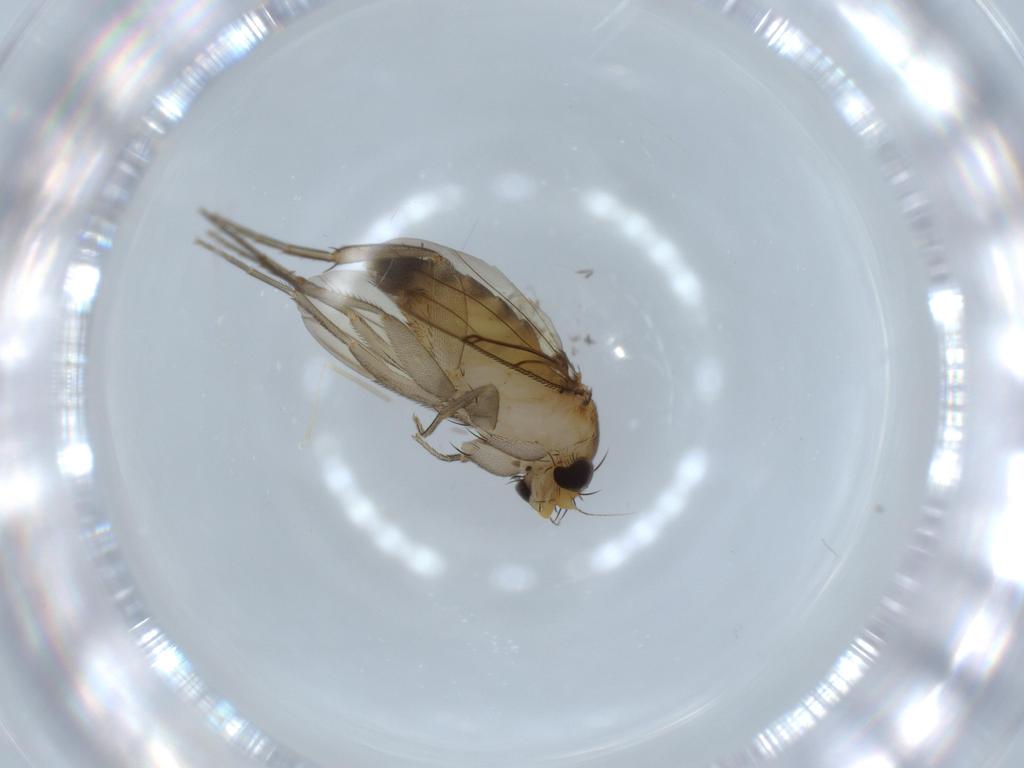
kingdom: Animalia
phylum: Arthropoda
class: Insecta
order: Diptera
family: Phoridae
